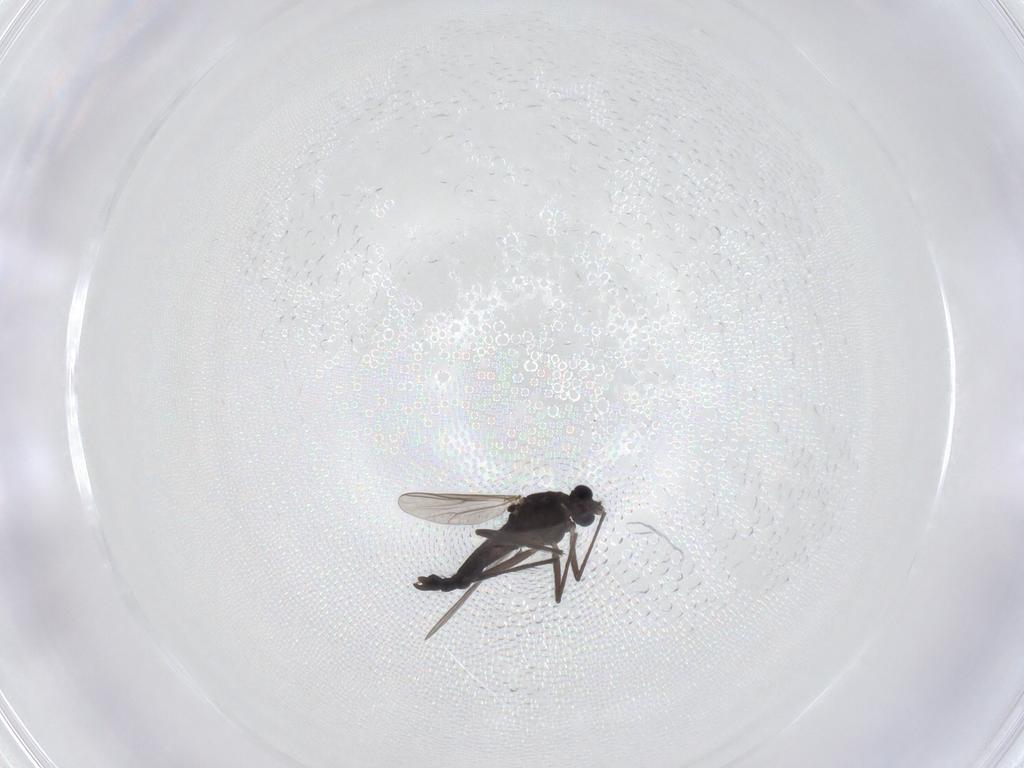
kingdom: Animalia
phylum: Arthropoda
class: Insecta
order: Diptera
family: Chironomidae
